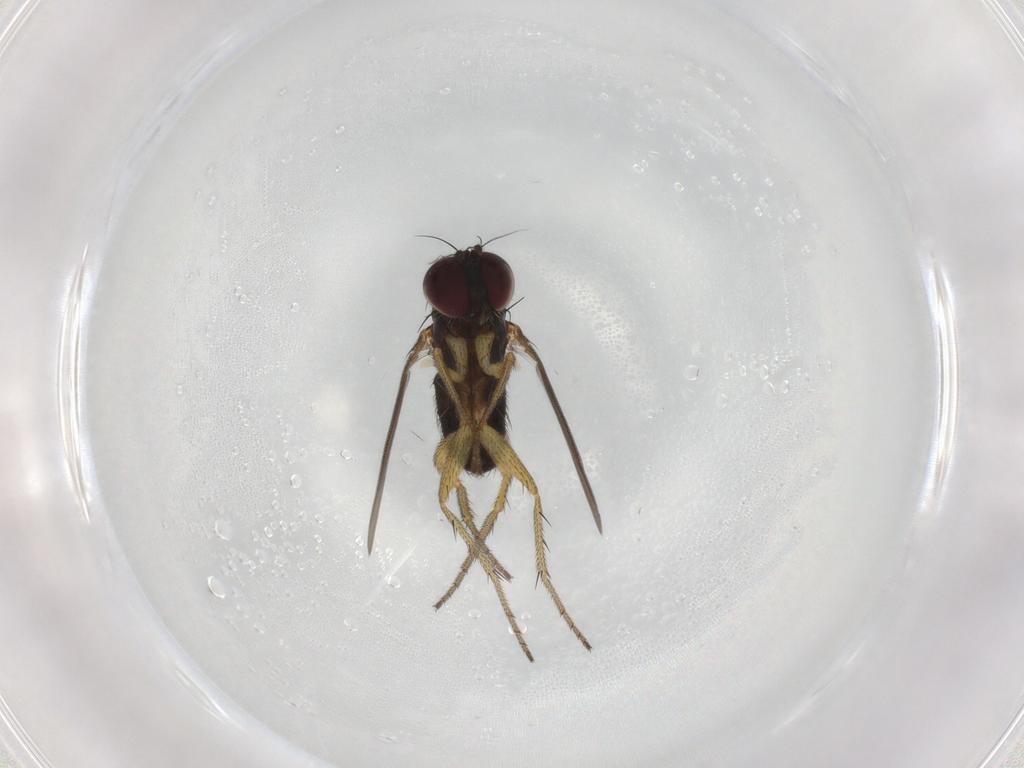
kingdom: Animalia
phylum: Arthropoda
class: Insecta
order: Diptera
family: Dolichopodidae
